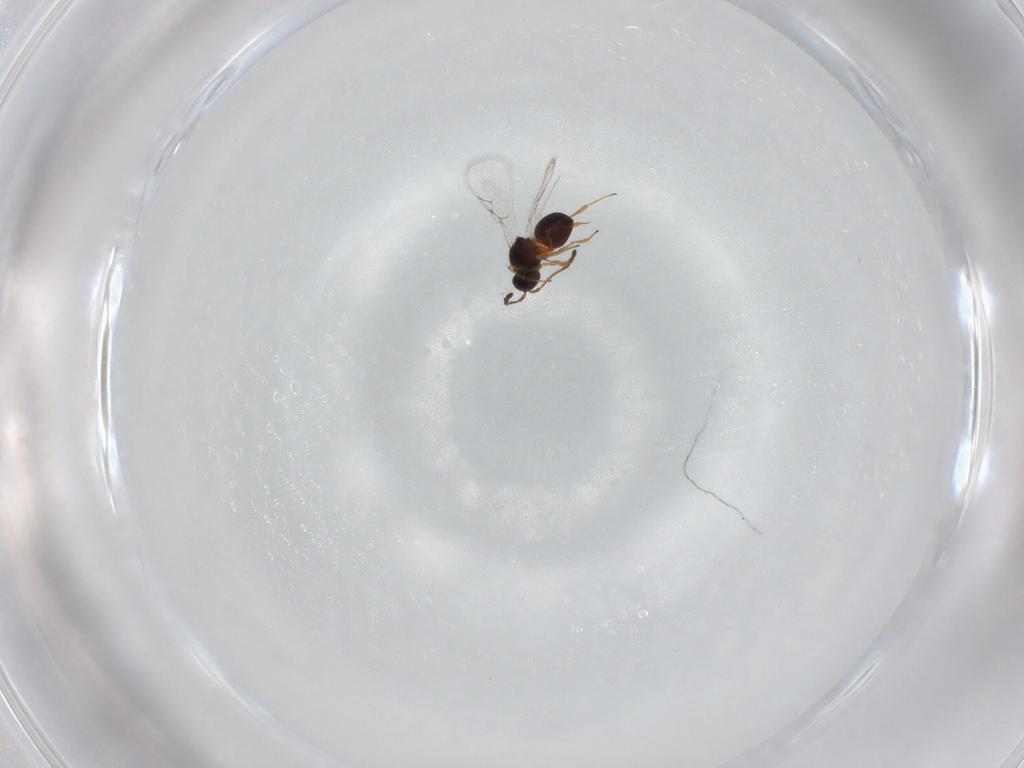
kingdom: Animalia
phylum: Arthropoda
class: Insecta
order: Hymenoptera
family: Figitidae
